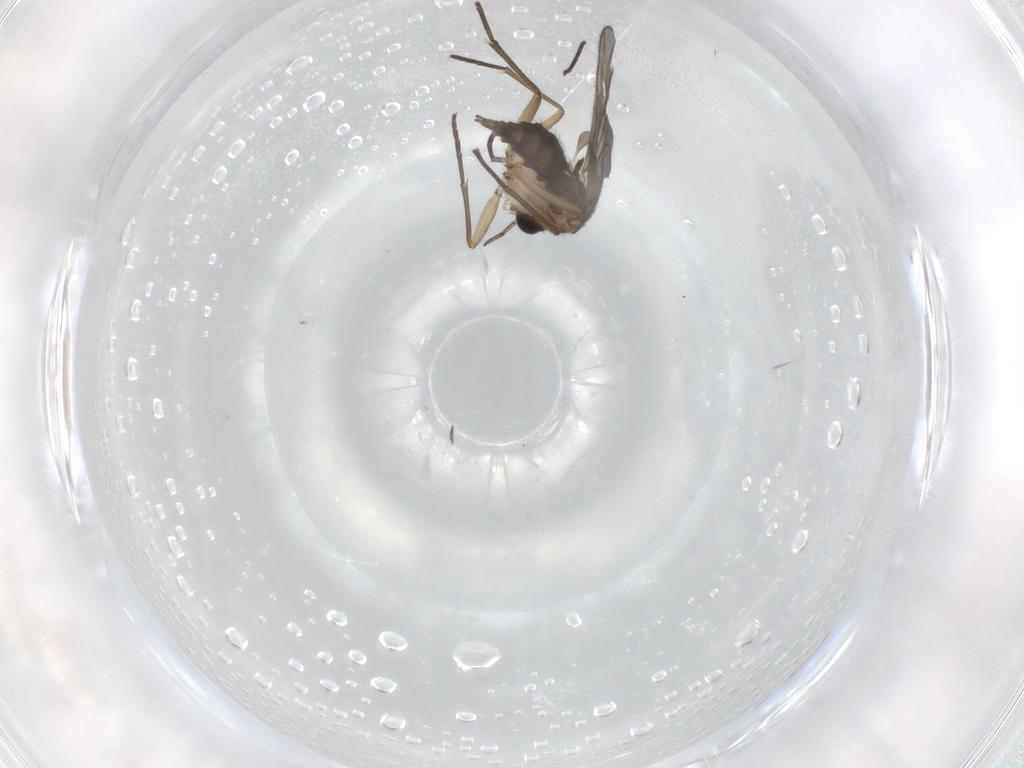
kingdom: Animalia
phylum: Arthropoda
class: Insecta
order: Diptera
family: Sciaridae
